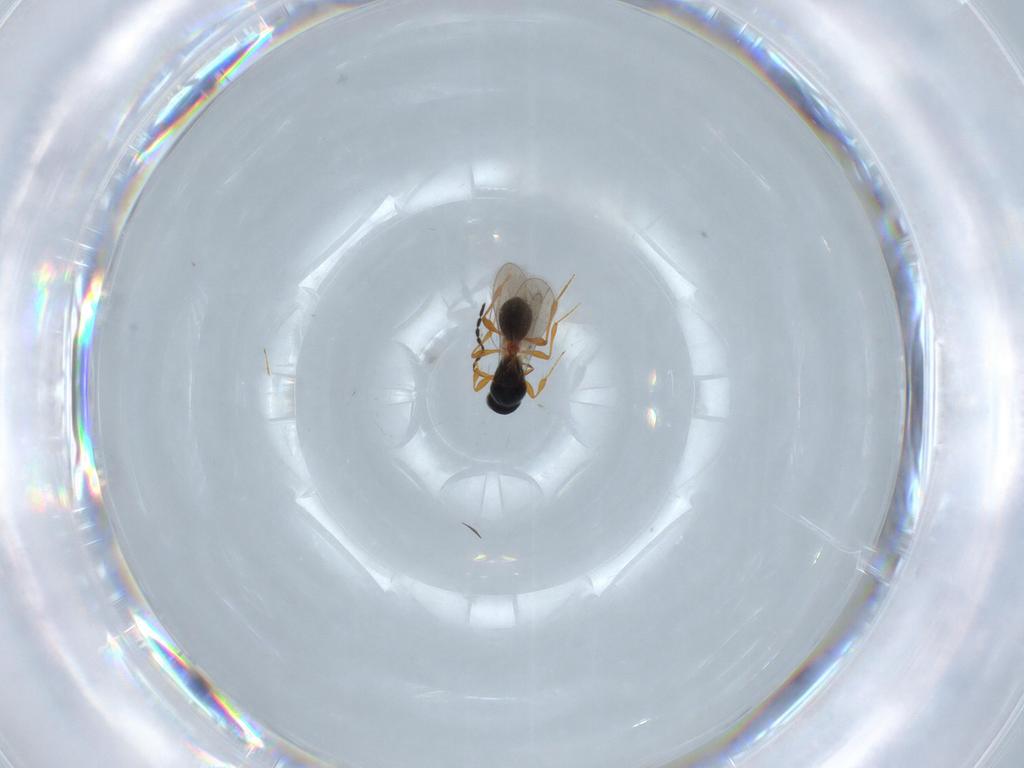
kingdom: Animalia
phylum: Arthropoda
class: Insecta
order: Hymenoptera
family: Platygastridae
